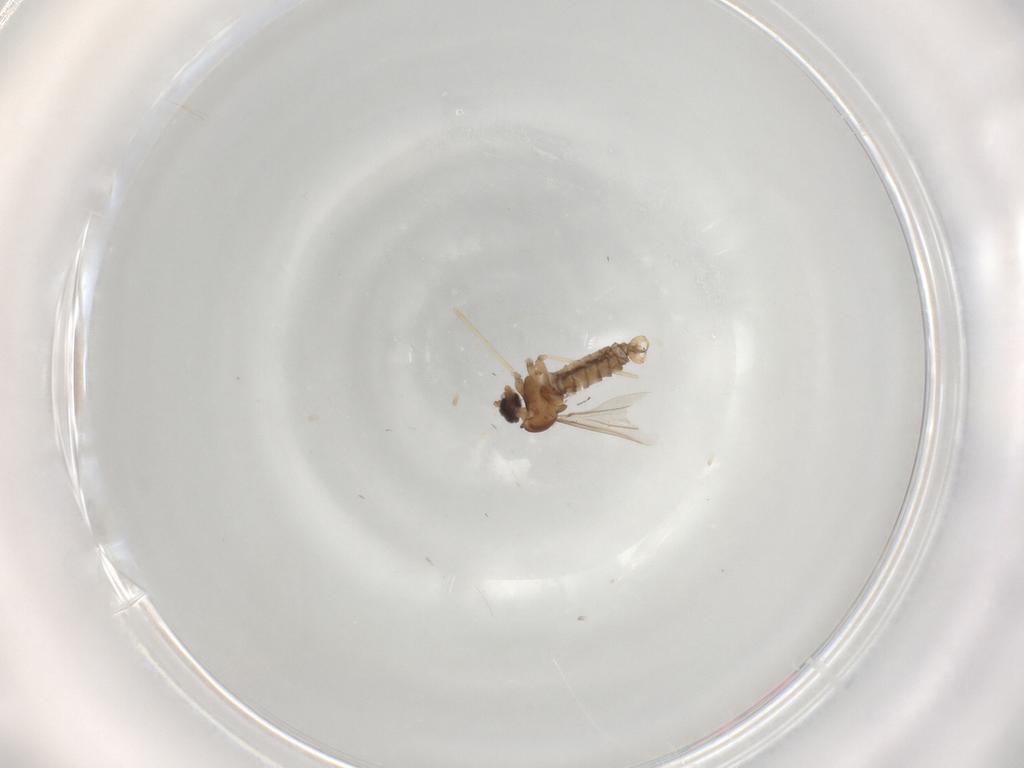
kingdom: Animalia
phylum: Arthropoda
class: Insecta
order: Diptera
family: Cecidomyiidae
